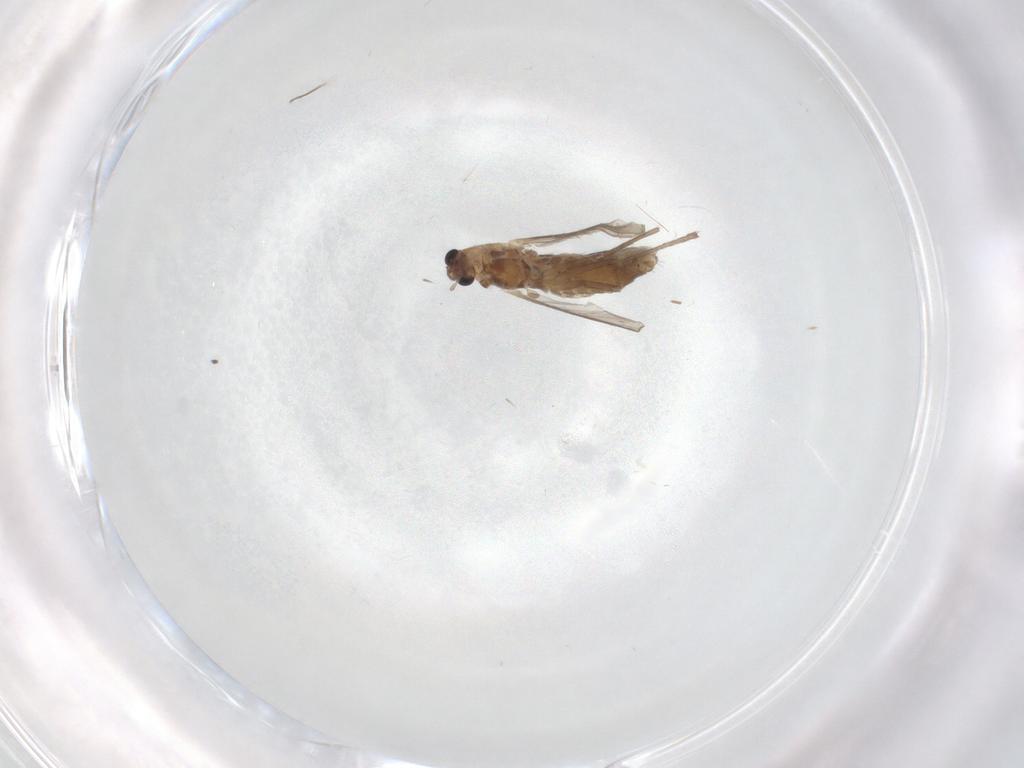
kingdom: Animalia
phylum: Arthropoda
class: Insecta
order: Diptera
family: Chironomidae
